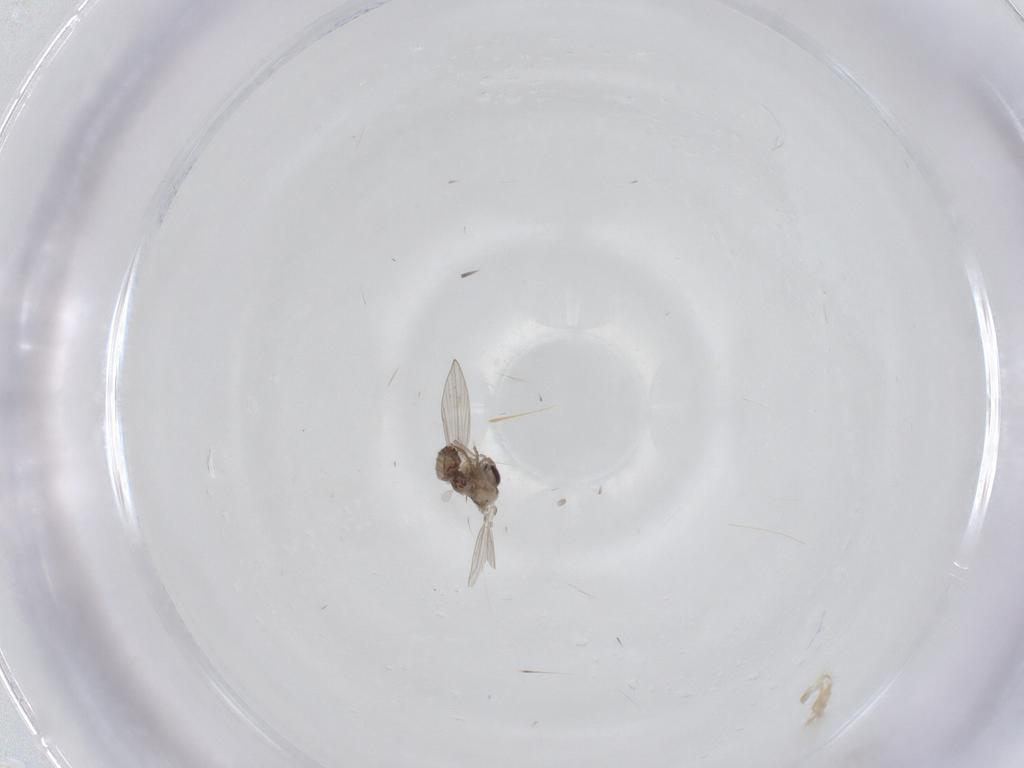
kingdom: Animalia
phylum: Arthropoda
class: Insecta
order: Diptera
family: Psychodidae
